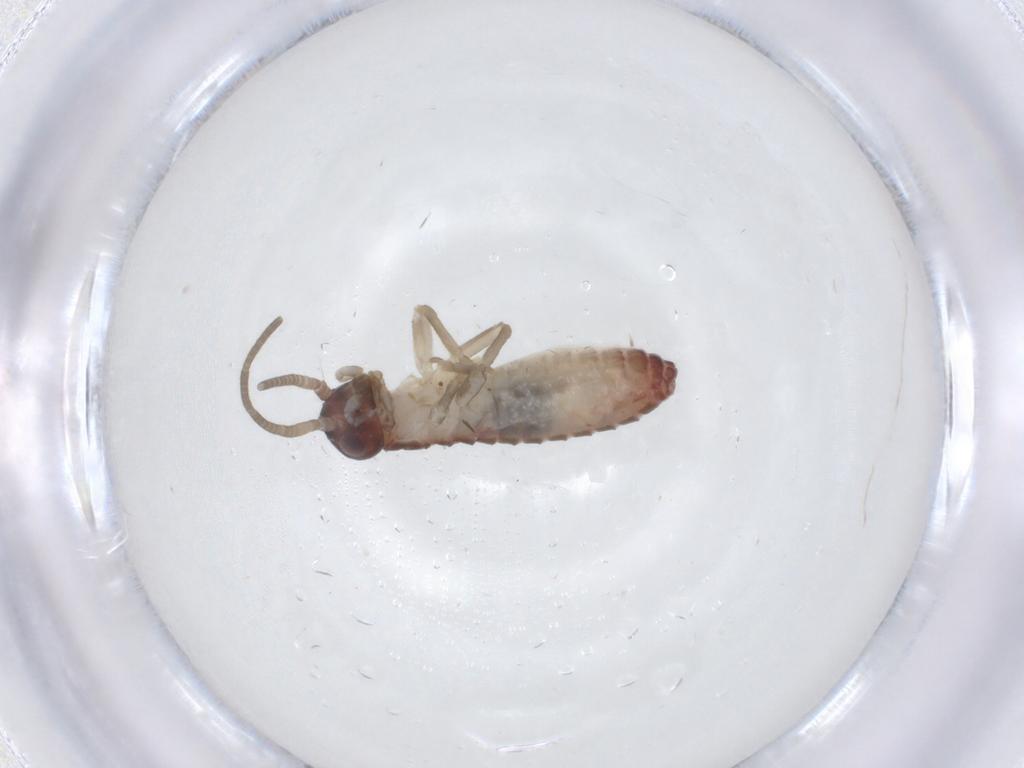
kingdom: Animalia
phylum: Arthropoda
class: Insecta
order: Orthoptera
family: Gryllidae
